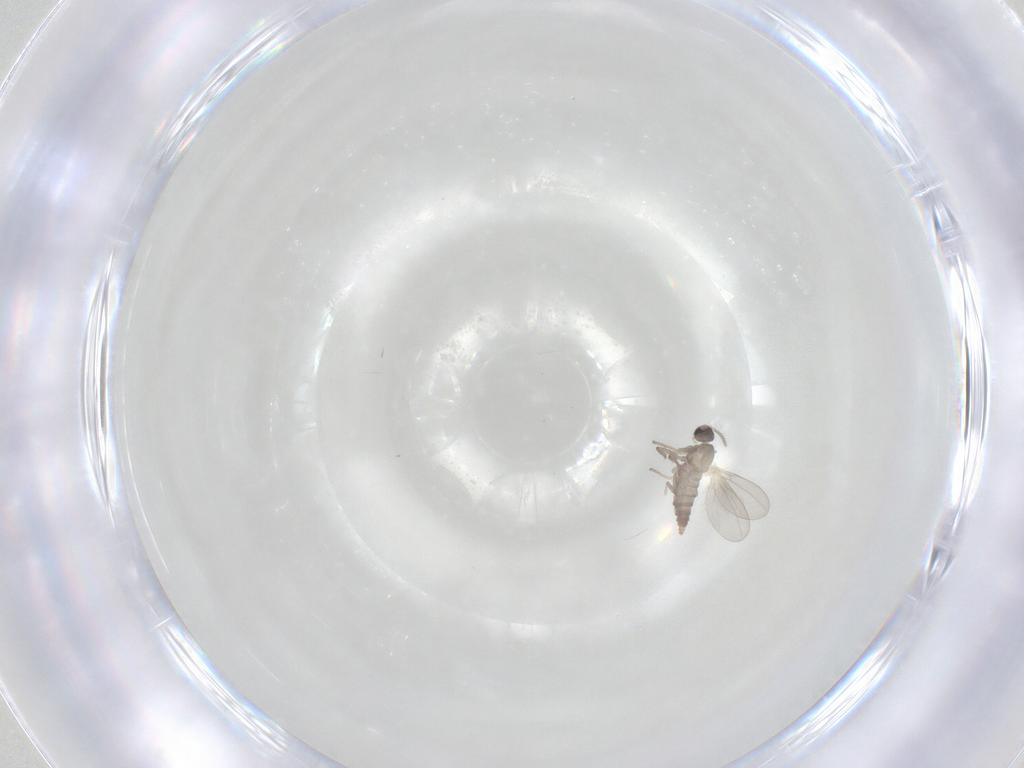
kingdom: Animalia
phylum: Arthropoda
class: Insecta
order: Diptera
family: Cecidomyiidae
